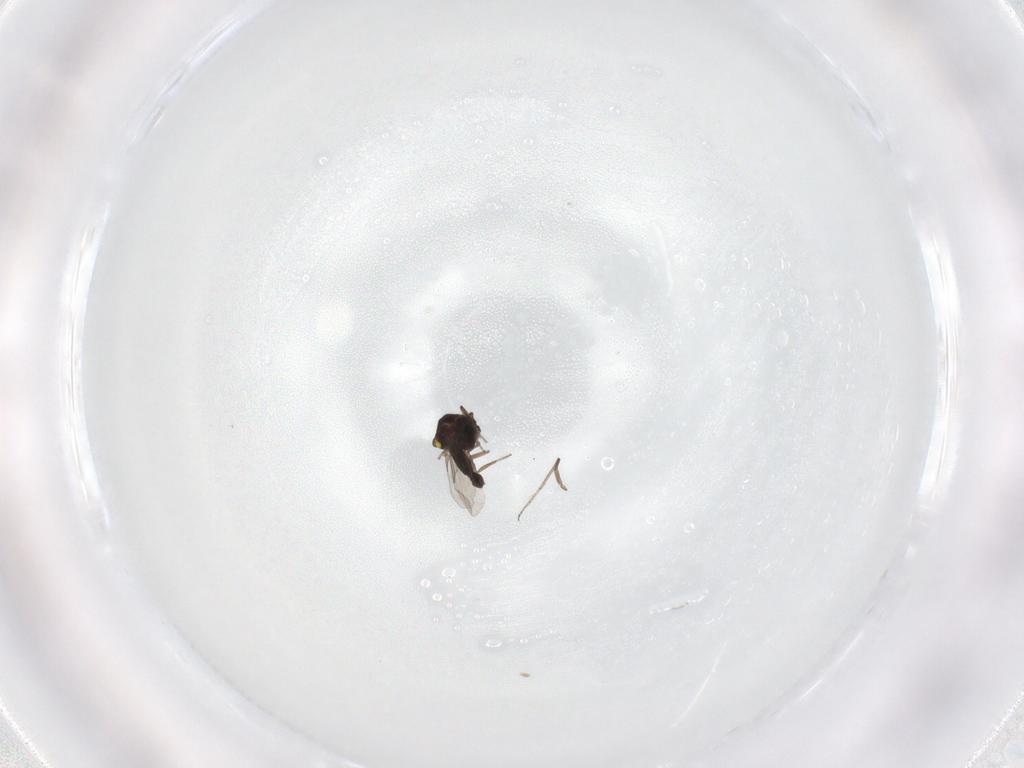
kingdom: Animalia
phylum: Arthropoda
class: Insecta
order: Diptera
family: Ceratopogonidae
